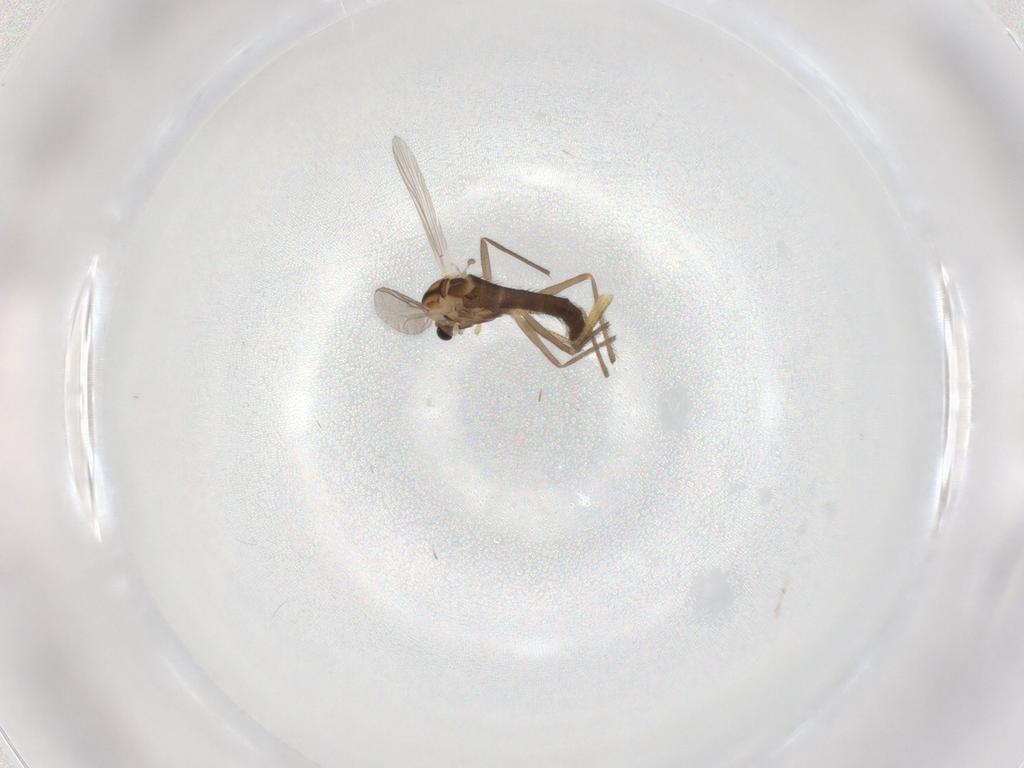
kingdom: Animalia
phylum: Arthropoda
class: Insecta
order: Diptera
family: Chironomidae
